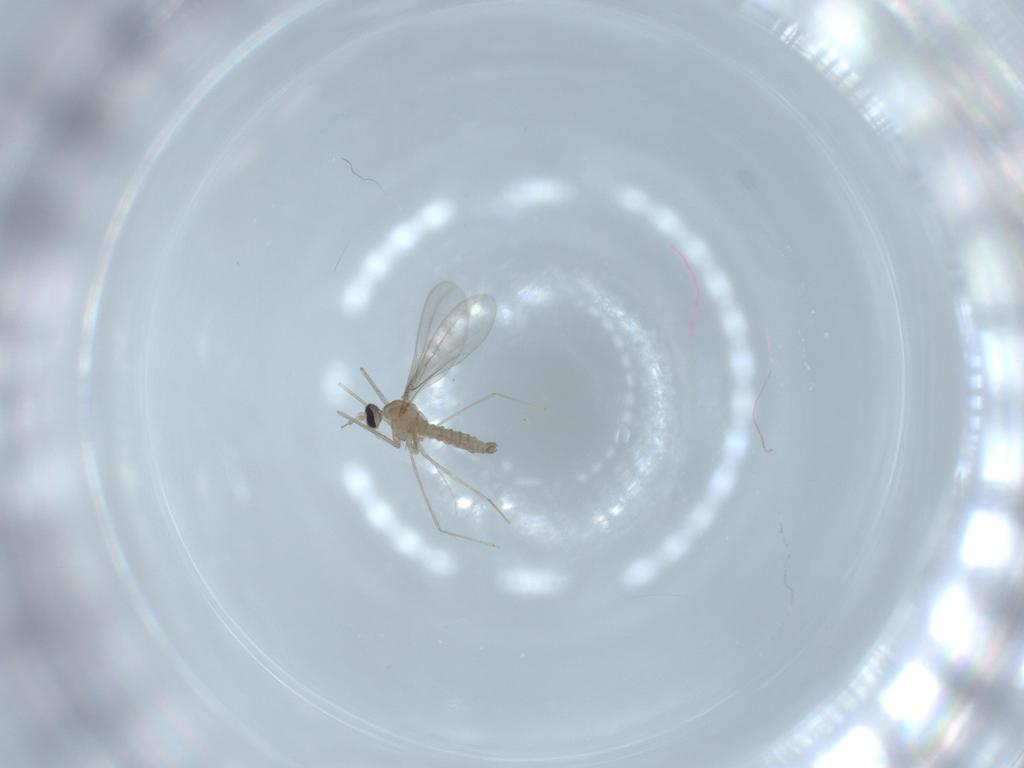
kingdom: Animalia
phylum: Arthropoda
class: Insecta
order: Diptera
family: Cecidomyiidae
